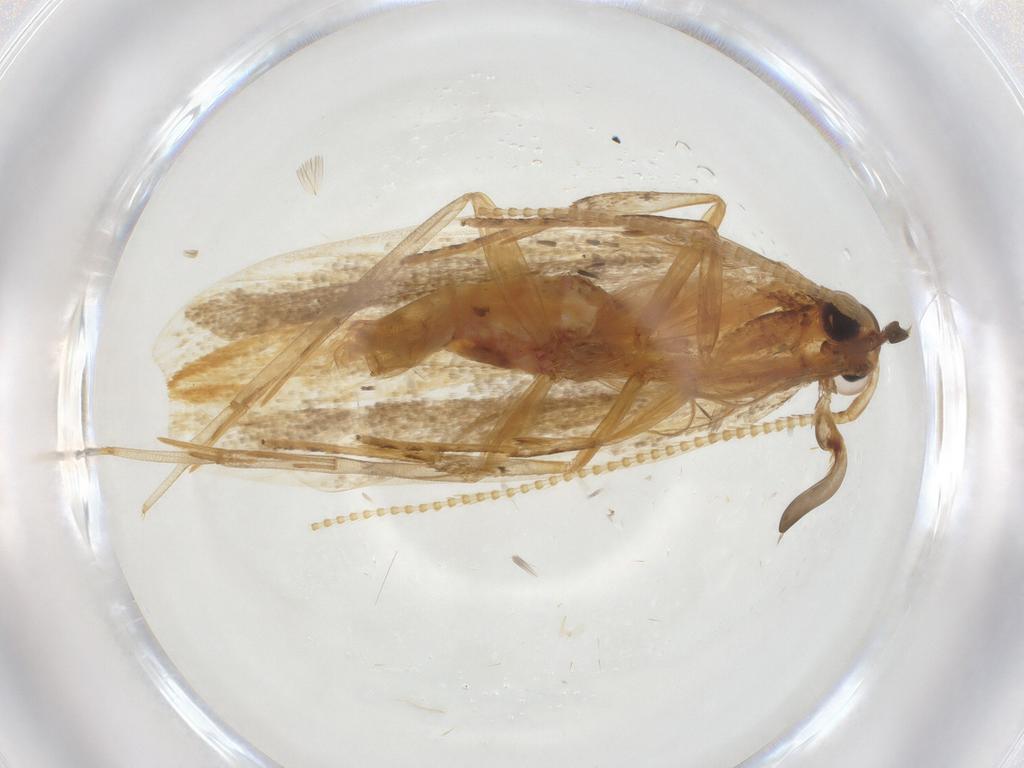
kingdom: Animalia
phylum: Arthropoda
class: Insecta
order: Lepidoptera
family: Lecithoceridae
